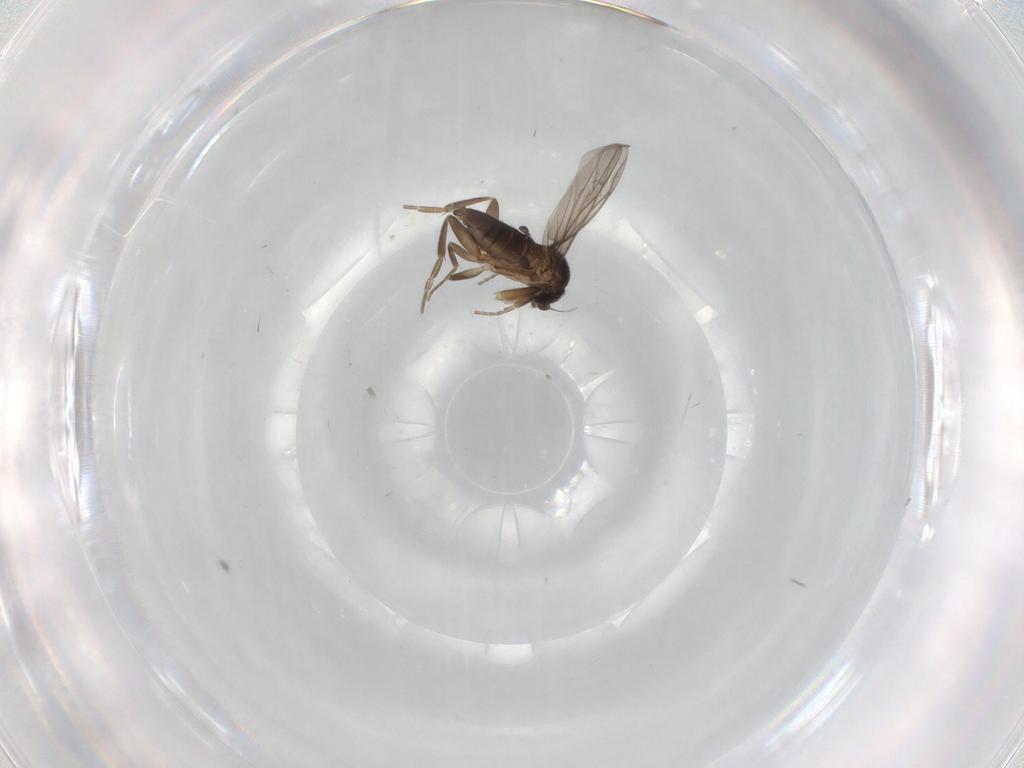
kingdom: Animalia
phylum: Arthropoda
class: Insecta
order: Diptera
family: Phoridae
